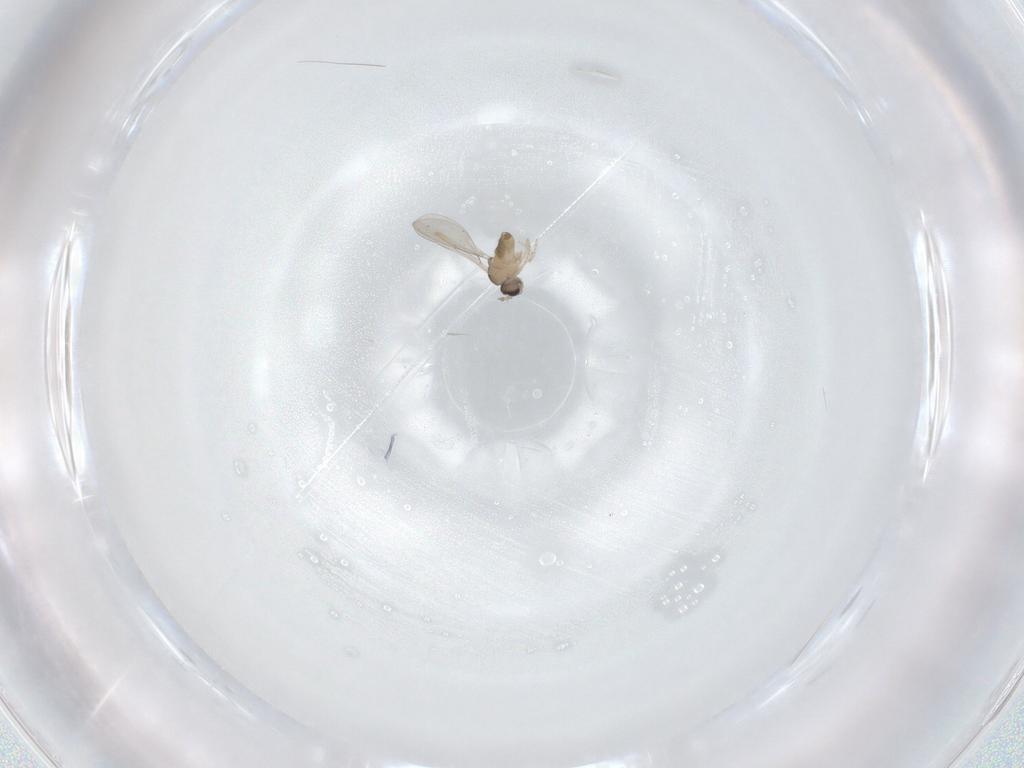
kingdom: Animalia
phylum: Arthropoda
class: Insecta
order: Diptera
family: Cecidomyiidae
